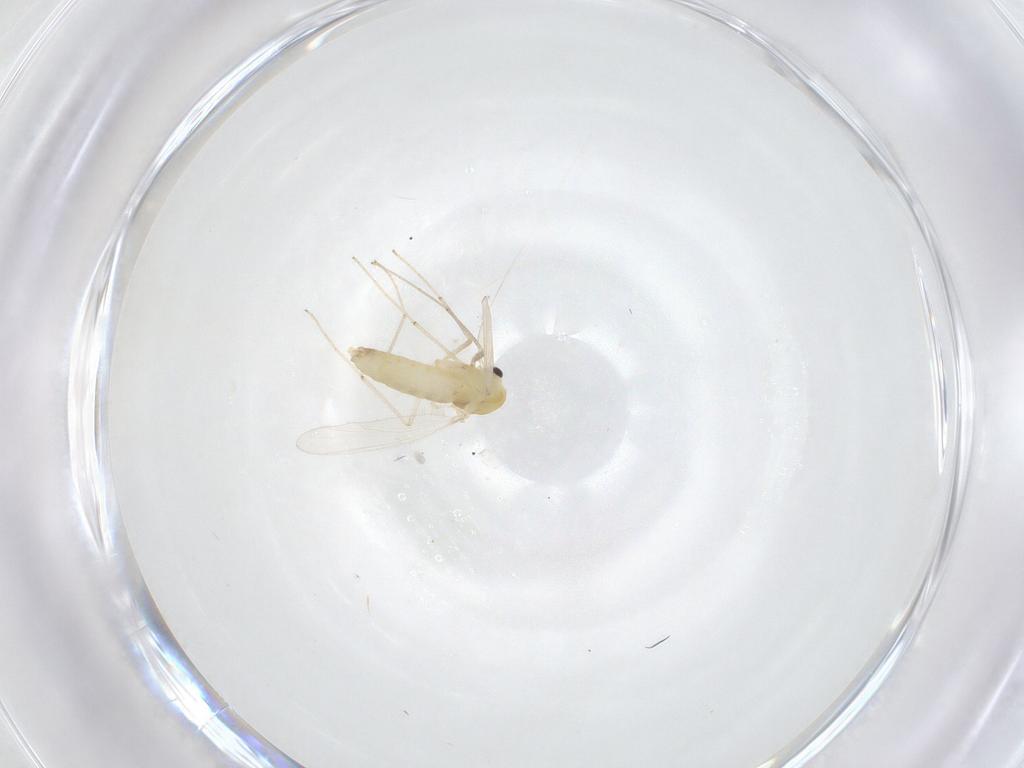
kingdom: Animalia
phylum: Arthropoda
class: Insecta
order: Diptera
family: Chironomidae
